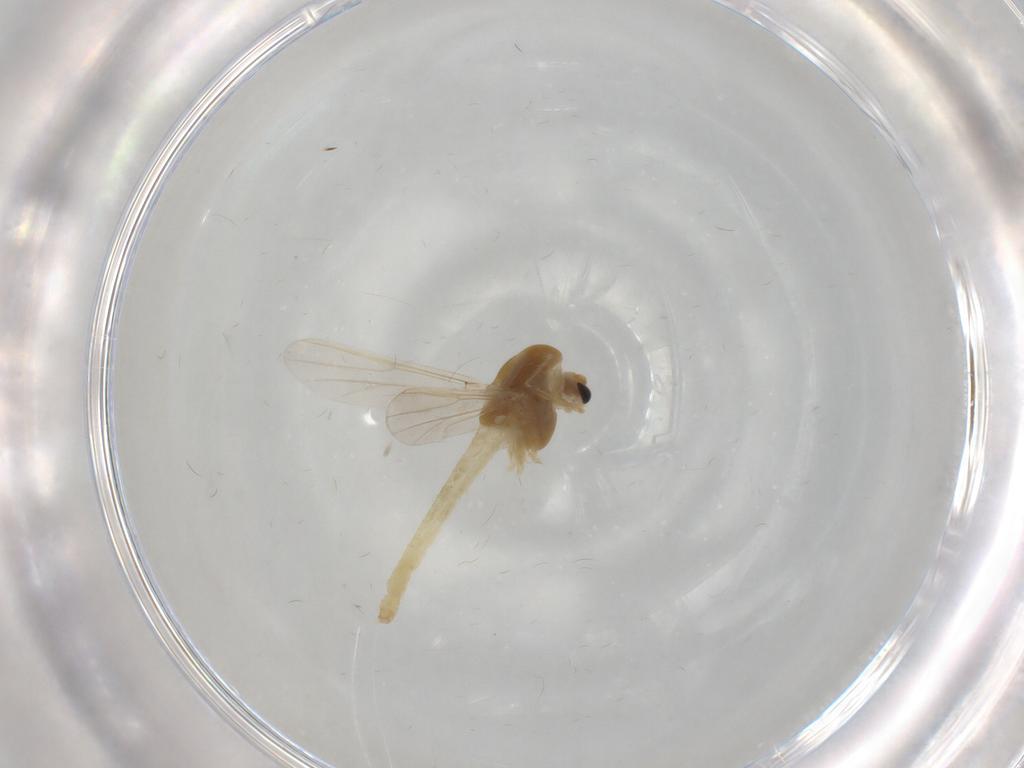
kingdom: Animalia
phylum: Arthropoda
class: Insecta
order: Diptera
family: Chironomidae
